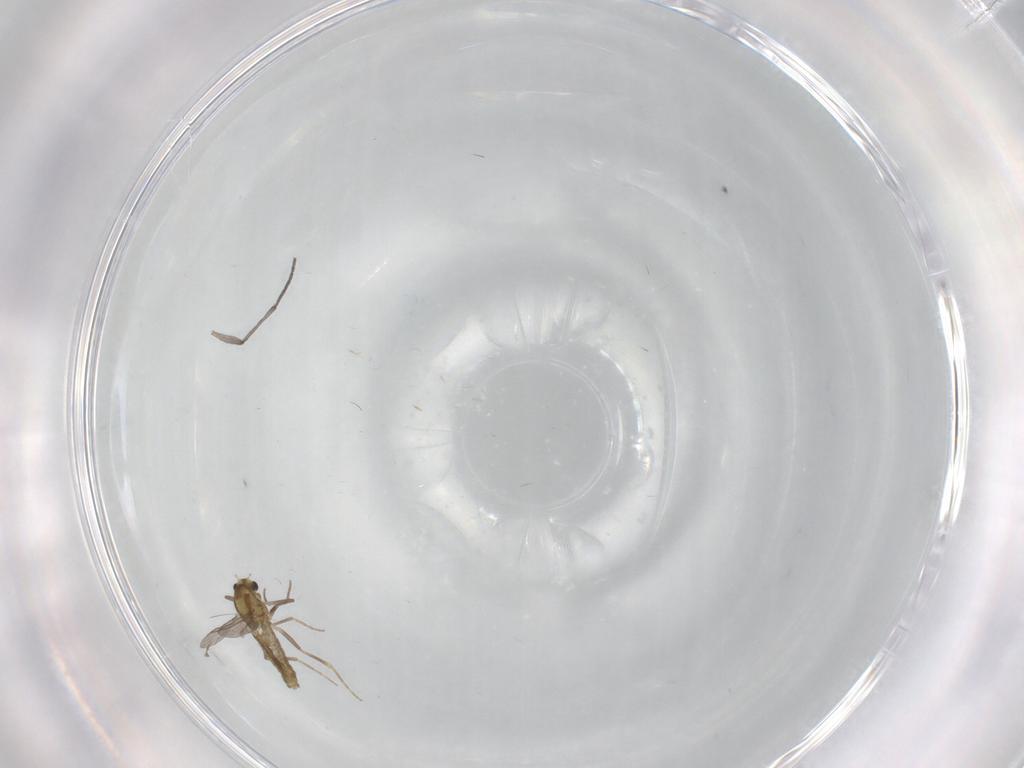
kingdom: Animalia
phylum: Arthropoda
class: Insecta
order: Diptera
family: Chironomidae
